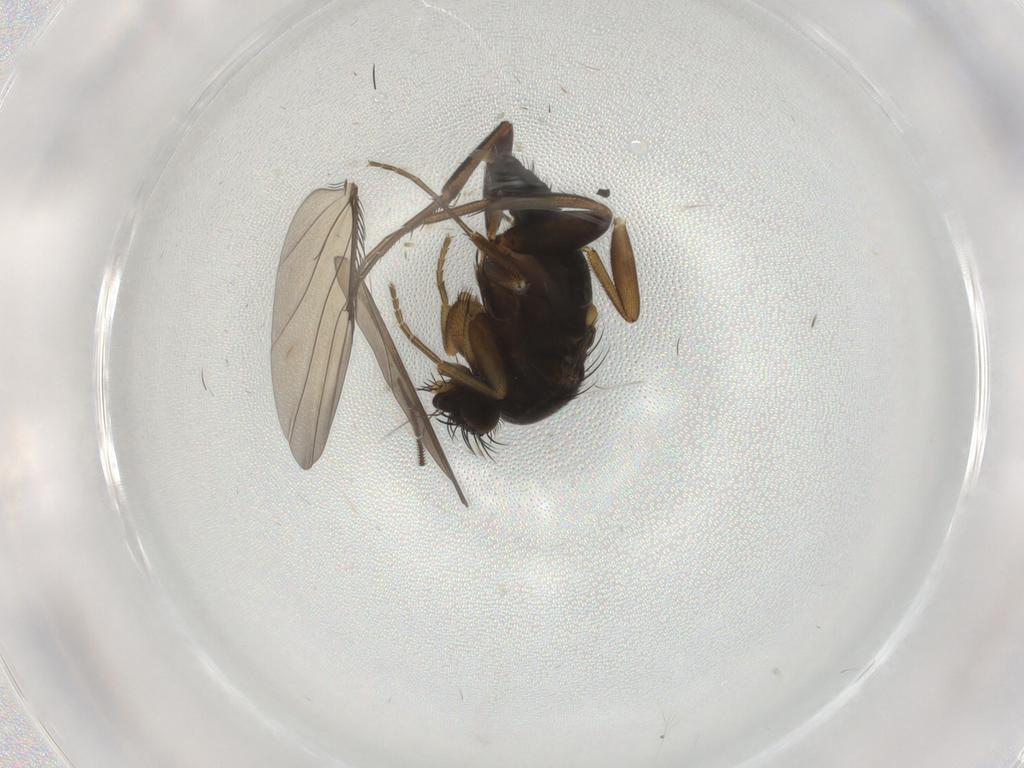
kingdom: Animalia
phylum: Arthropoda
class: Insecta
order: Diptera
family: Phoridae
